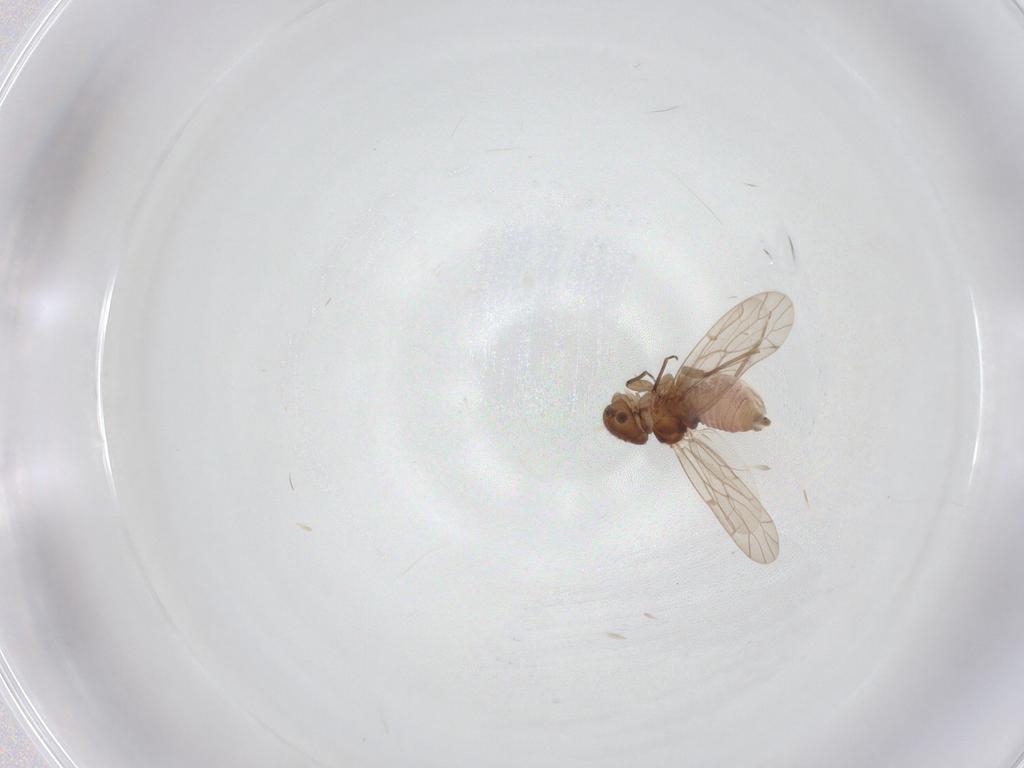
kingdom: Animalia
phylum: Arthropoda
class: Insecta
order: Psocodea
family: Ectopsocidae
